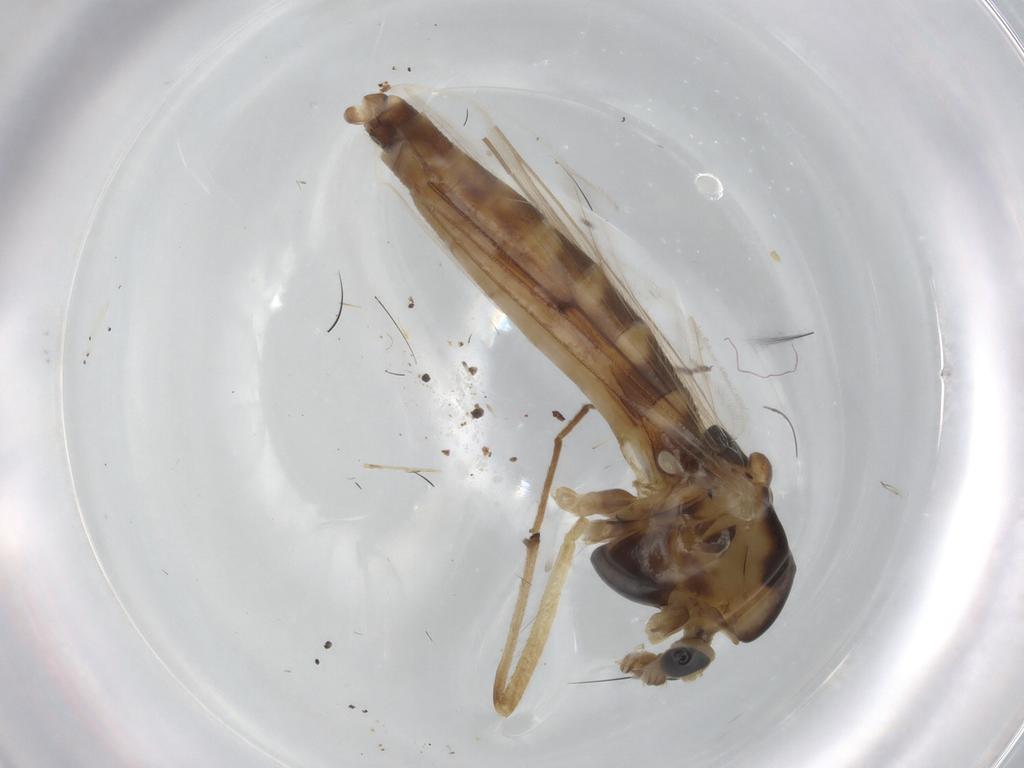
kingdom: Animalia
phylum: Arthropoda
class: Insecta
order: Diptera
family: Chironomidae
